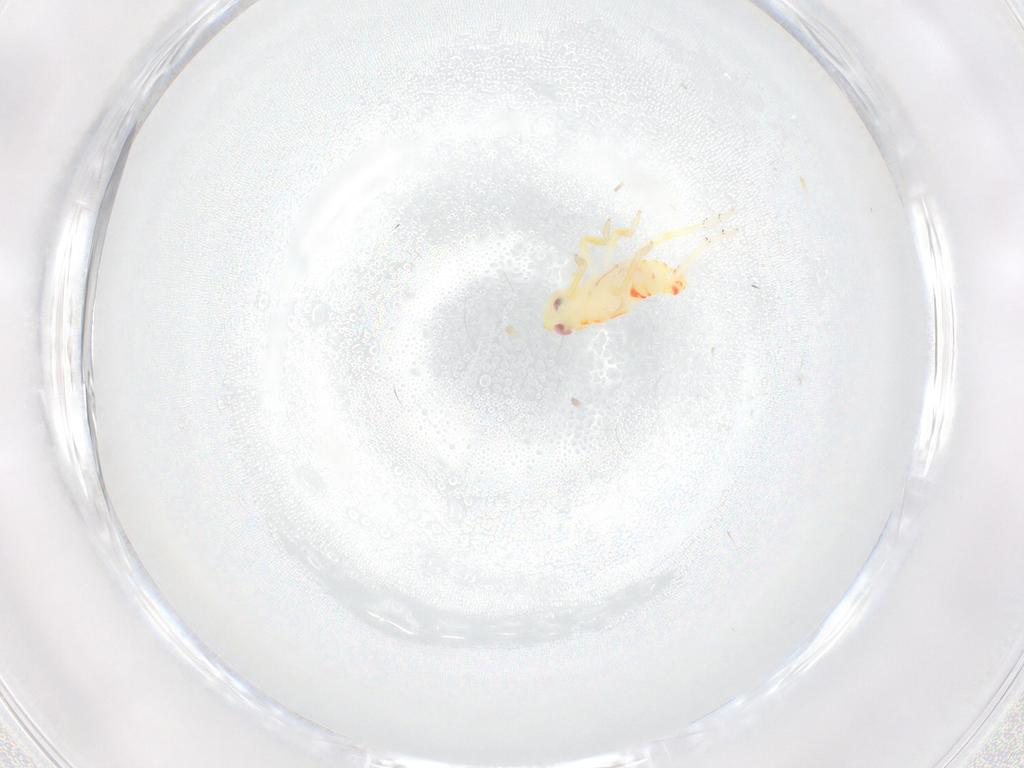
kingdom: Animalia
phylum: Arthropoda
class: Insecta
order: Hemiptera
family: Tropiduchidae
